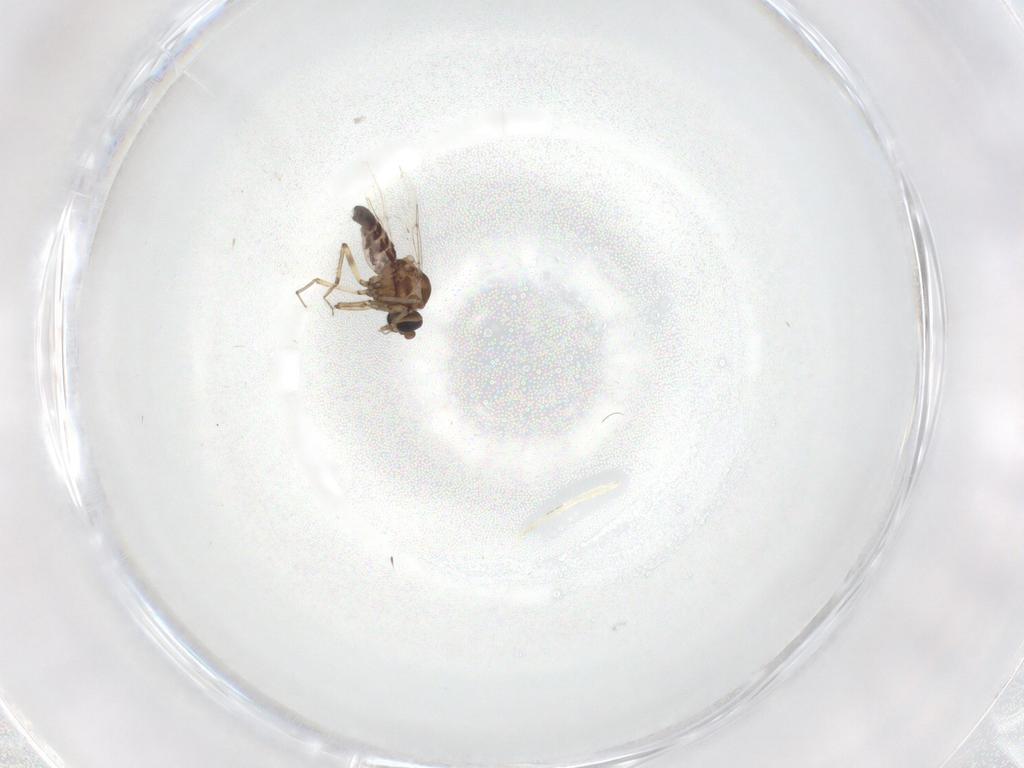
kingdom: Animalia
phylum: Arthropoda
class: Insecta
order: Diptera
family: Ceratopogonidae
